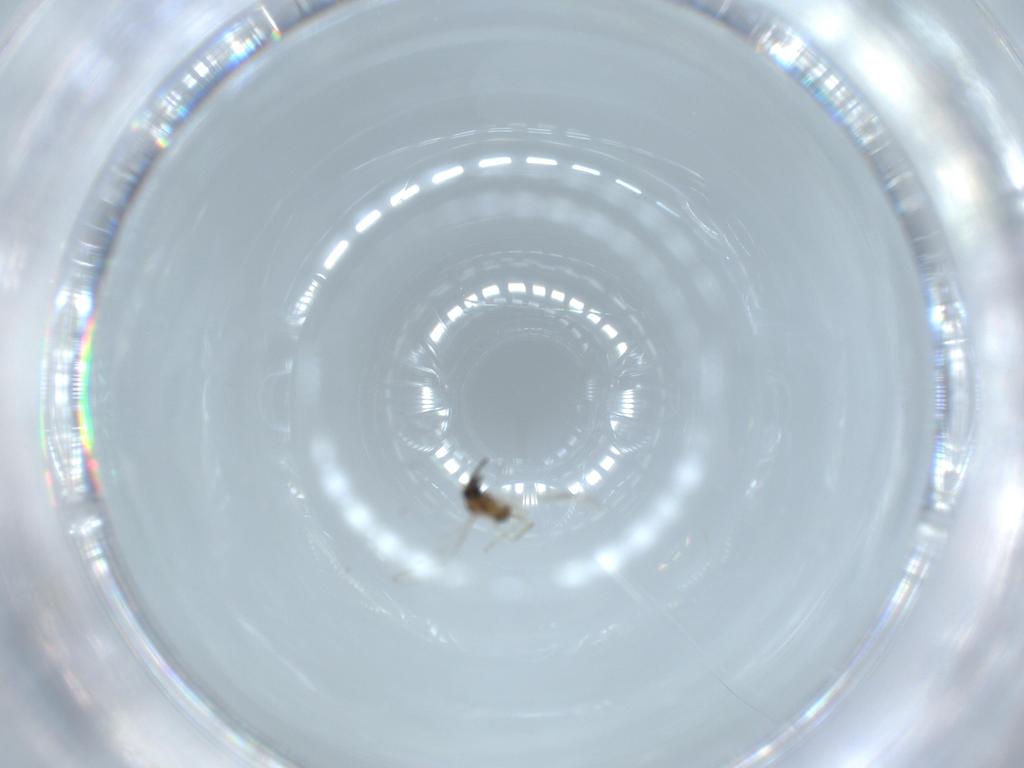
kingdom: Animalia
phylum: Arthropoda
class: Insecta
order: Diptera
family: Cecidomyiidae
